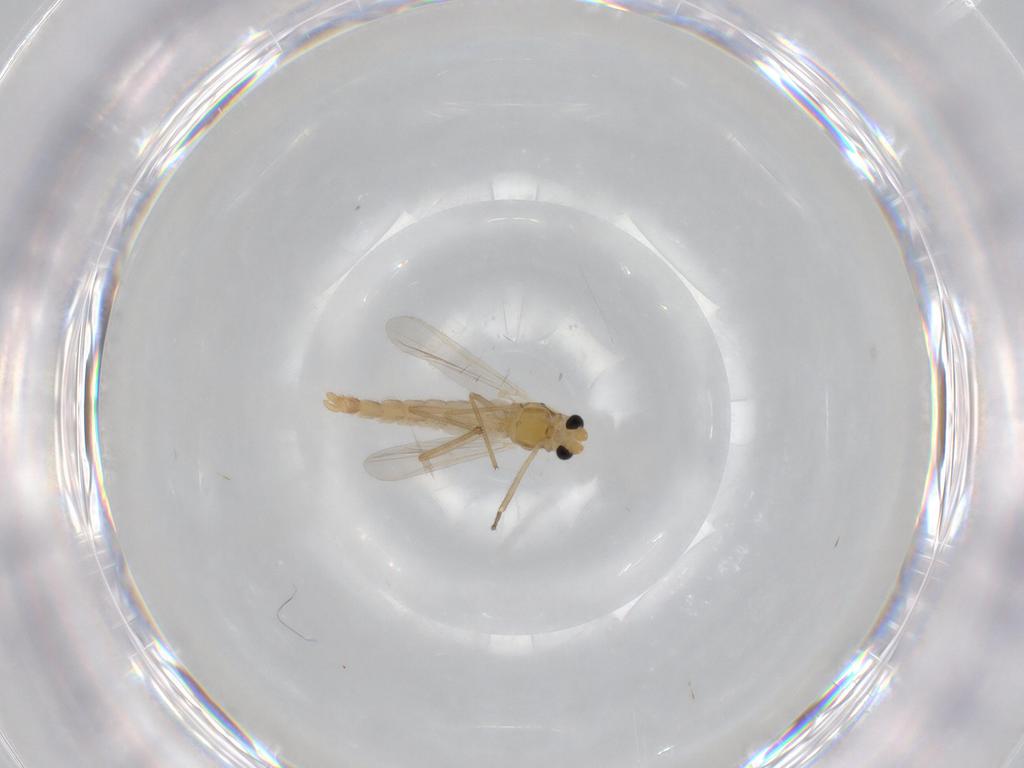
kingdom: Animalia
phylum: Arthropoda
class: Insecta
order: Diptera
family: Chironomidae
